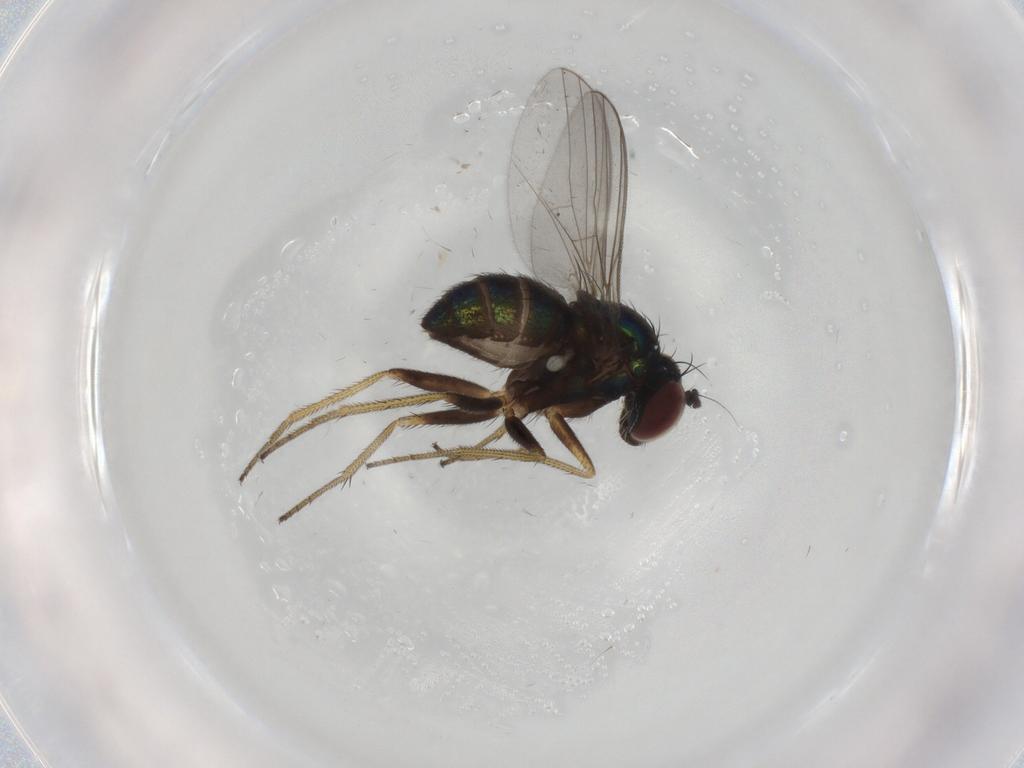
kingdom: Animalia
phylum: Arthropoda
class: Insecta
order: Diptera
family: Dolichopodidae
